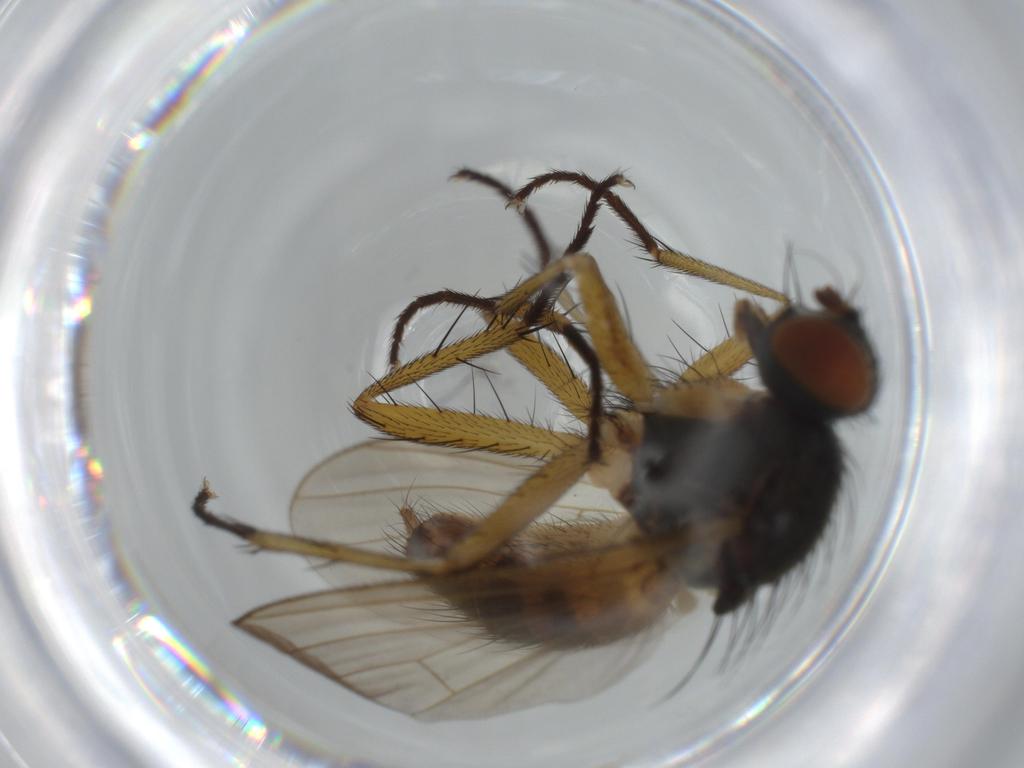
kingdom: Animalia
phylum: Arthropoda
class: Insecta
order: Diptera
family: Muscidae
